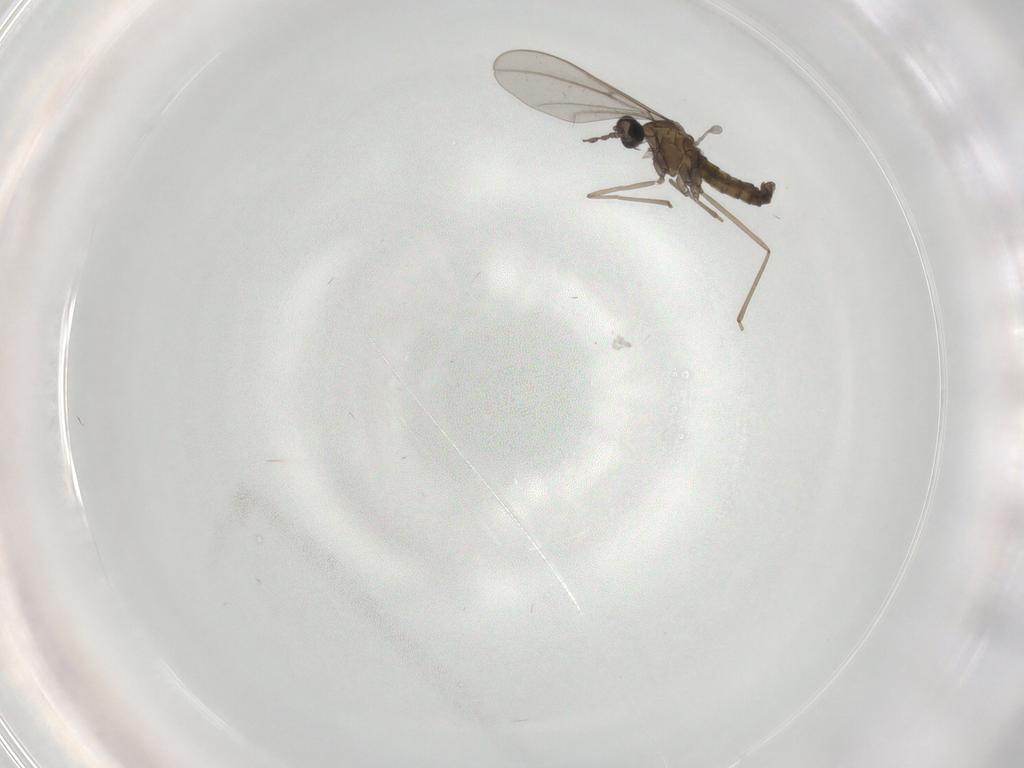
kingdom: Animalia
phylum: Arthropoda
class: Insecta
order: Diptera
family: Cecidomyiidae
